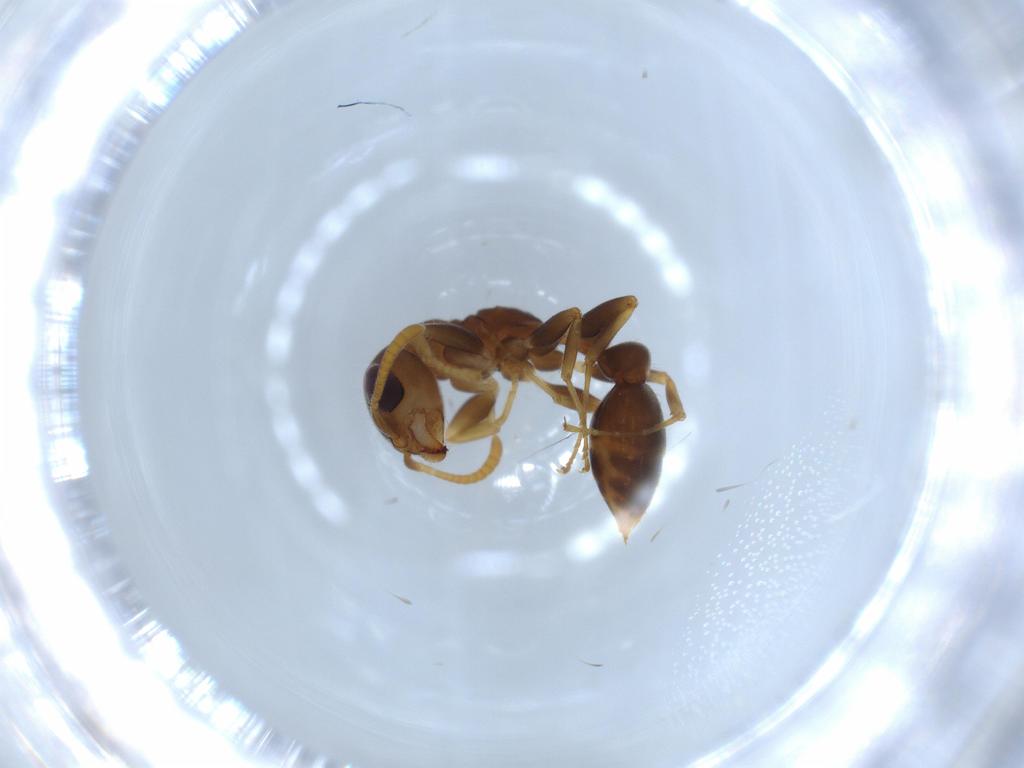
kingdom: Animalia
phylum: Arthropoda
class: Insecta
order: Hymenoptera
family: Formicidae
